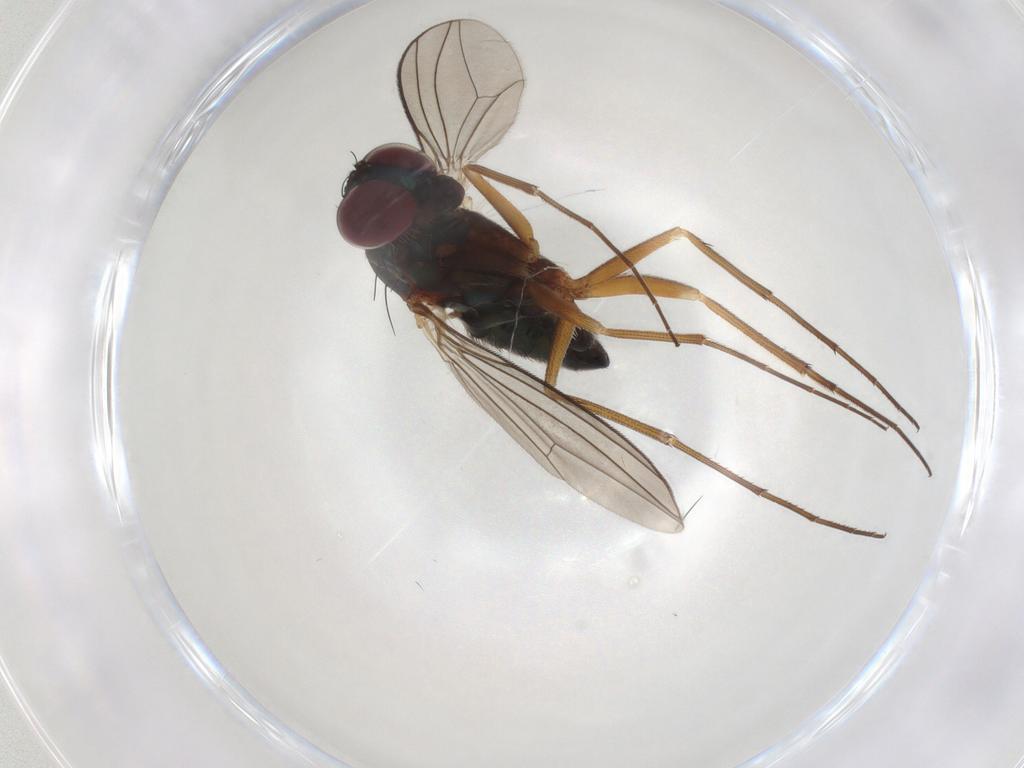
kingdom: Animalia
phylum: Arthropoda
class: Insecta
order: Diptera
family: Dolichopodidae
